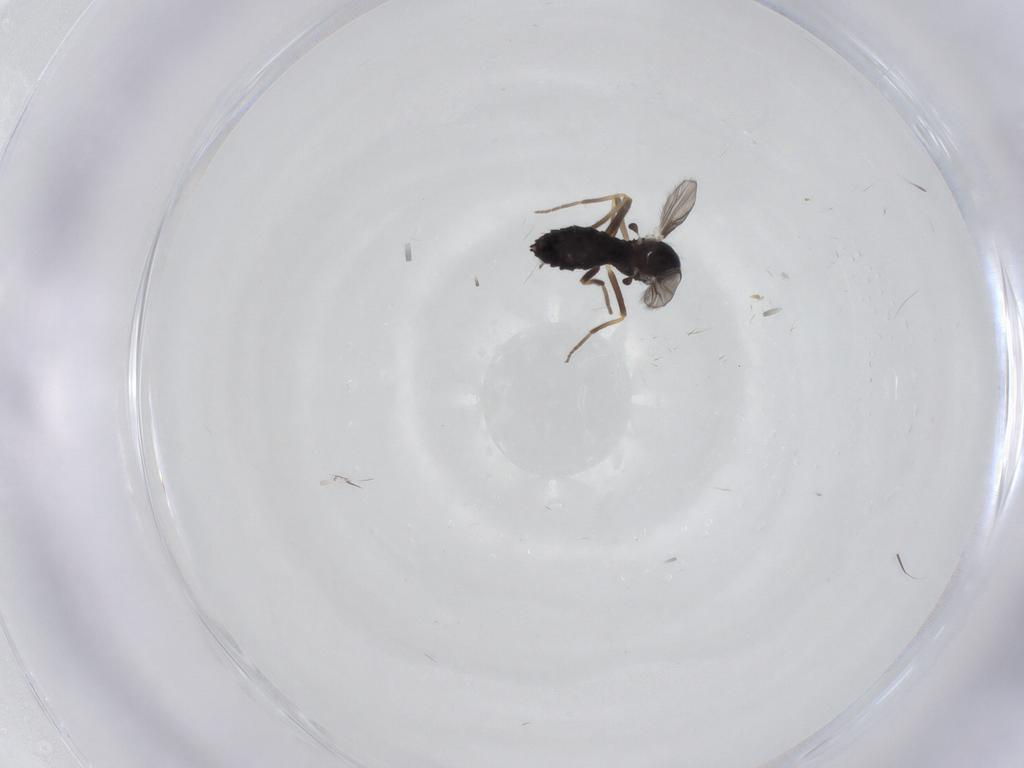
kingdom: Animalia
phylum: Arthropoda
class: Insecta
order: Diptera
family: Chironomidae
